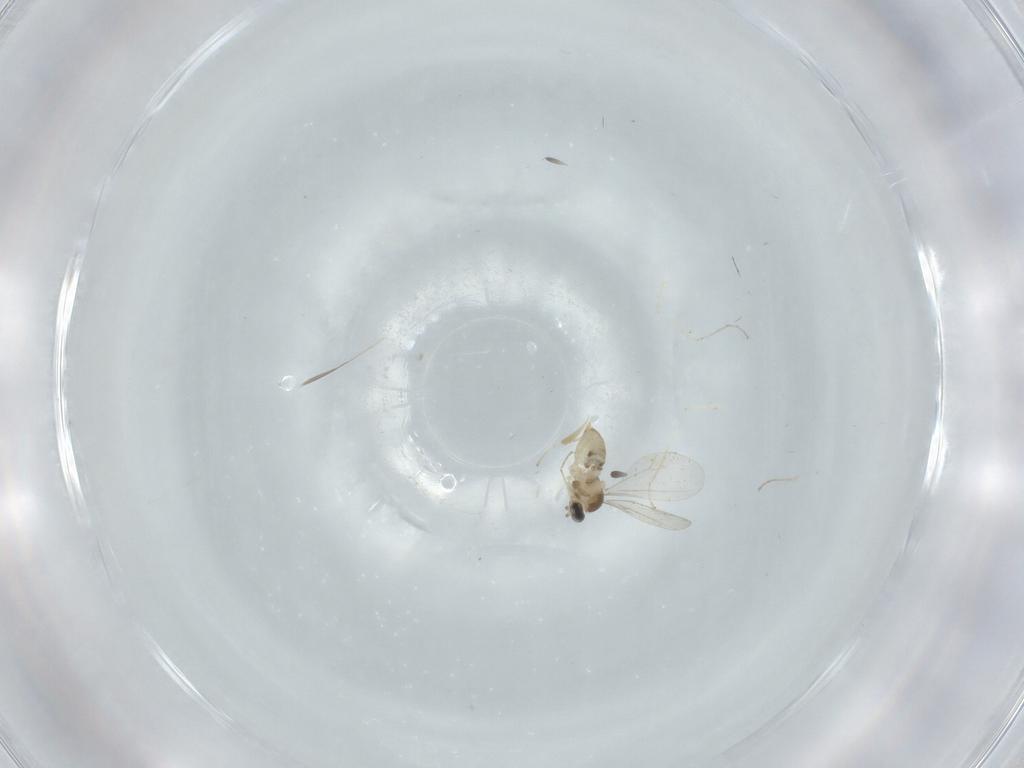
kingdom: Animalia
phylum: Arthropoda
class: Insecta
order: Diptera
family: Cecidomyiidae
